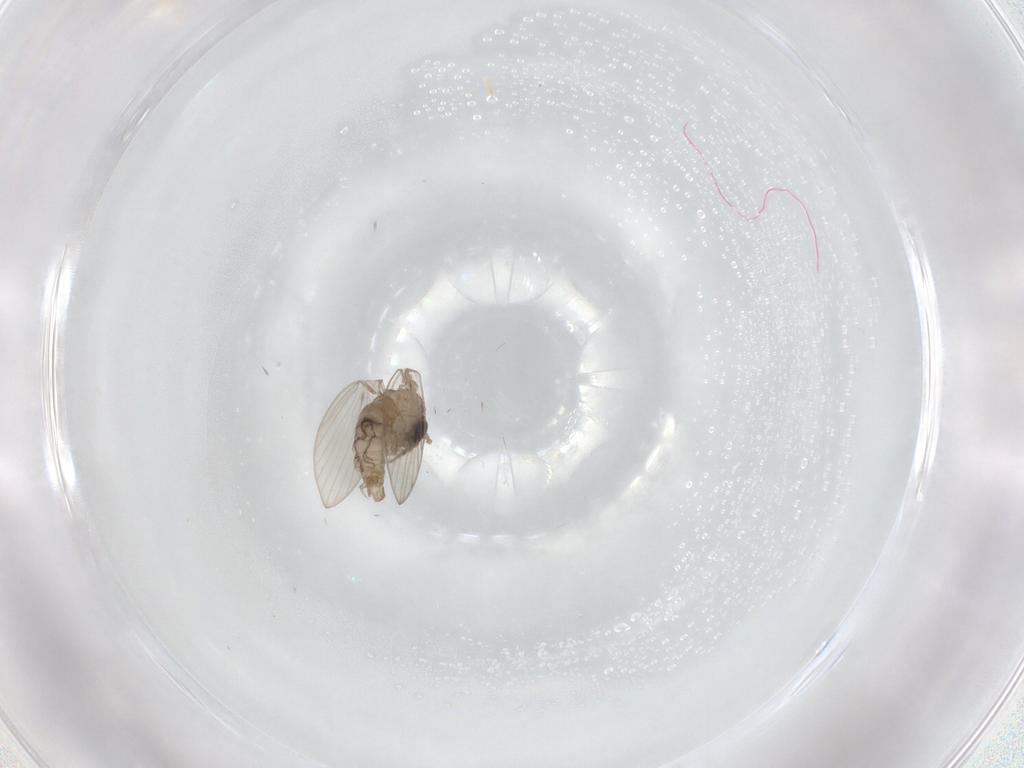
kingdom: Animalia
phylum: Arthropoda
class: Insecta
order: Diptera
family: Psychodidae
